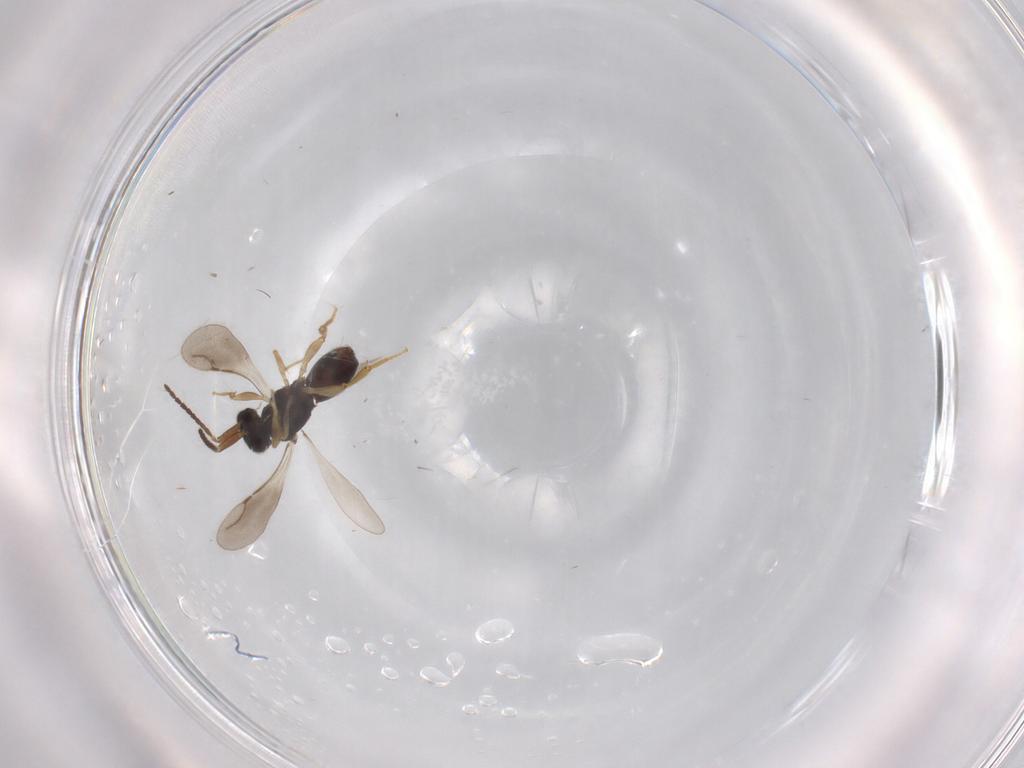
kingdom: Animalia
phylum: Arthropoda
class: Insecta
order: Hymenoptera
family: Ceraphronidae
